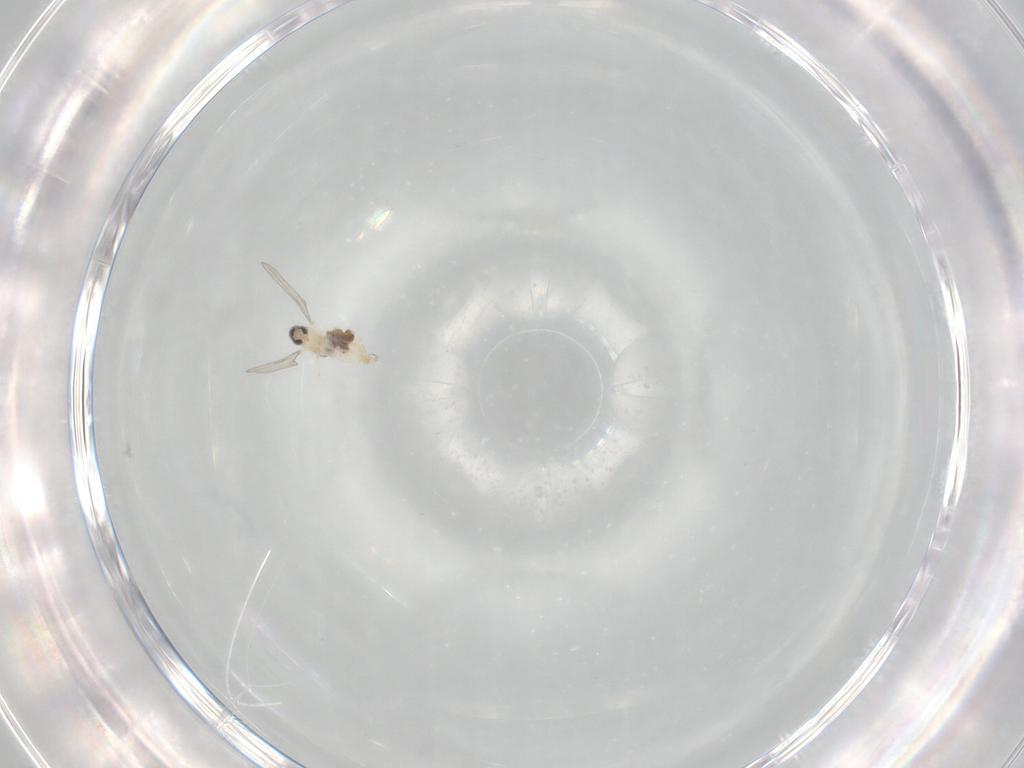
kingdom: Animalia
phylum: Arthropoda
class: Insecta
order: Diptera
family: Cecidomyiidae
